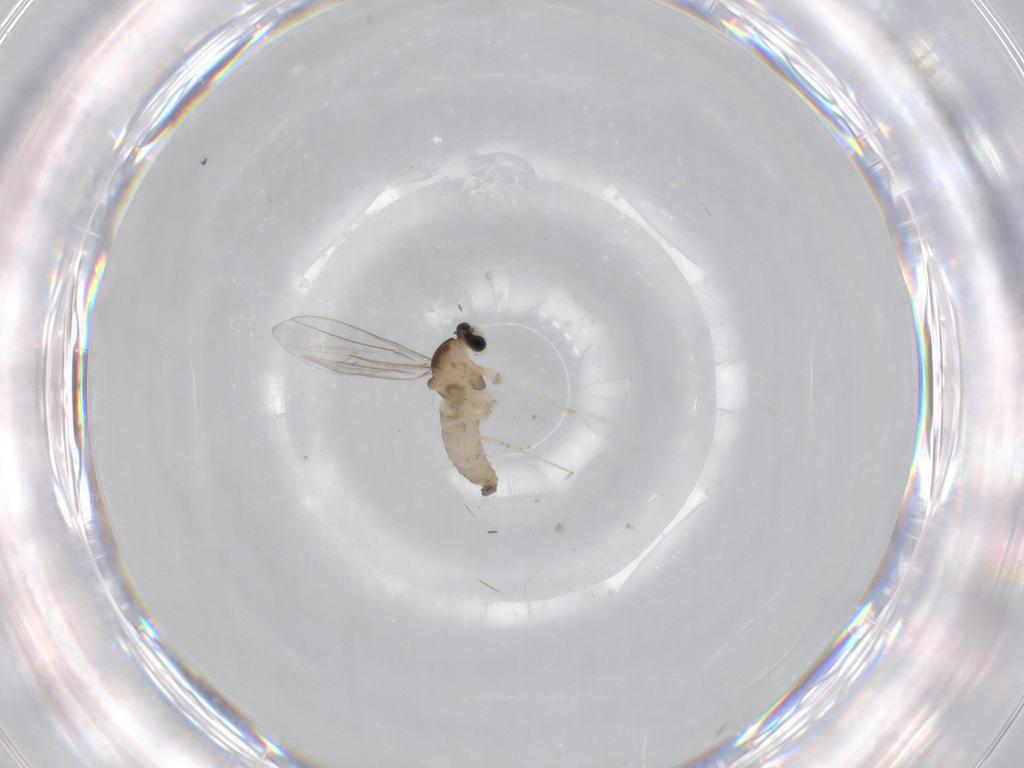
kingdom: Animalia
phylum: Arthropoda
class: Insecta
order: Diptera
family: Cecidomyiidae
